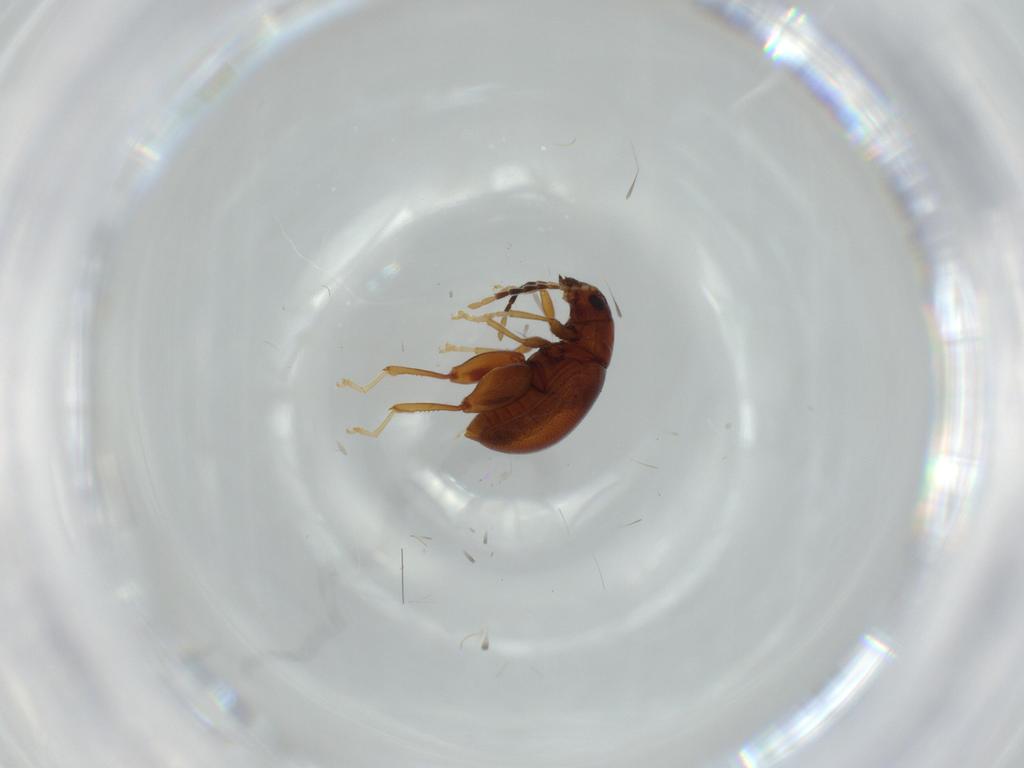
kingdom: Animalia
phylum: Arthropoda
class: Insecta
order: Coleoptera
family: Chrysomelidae
